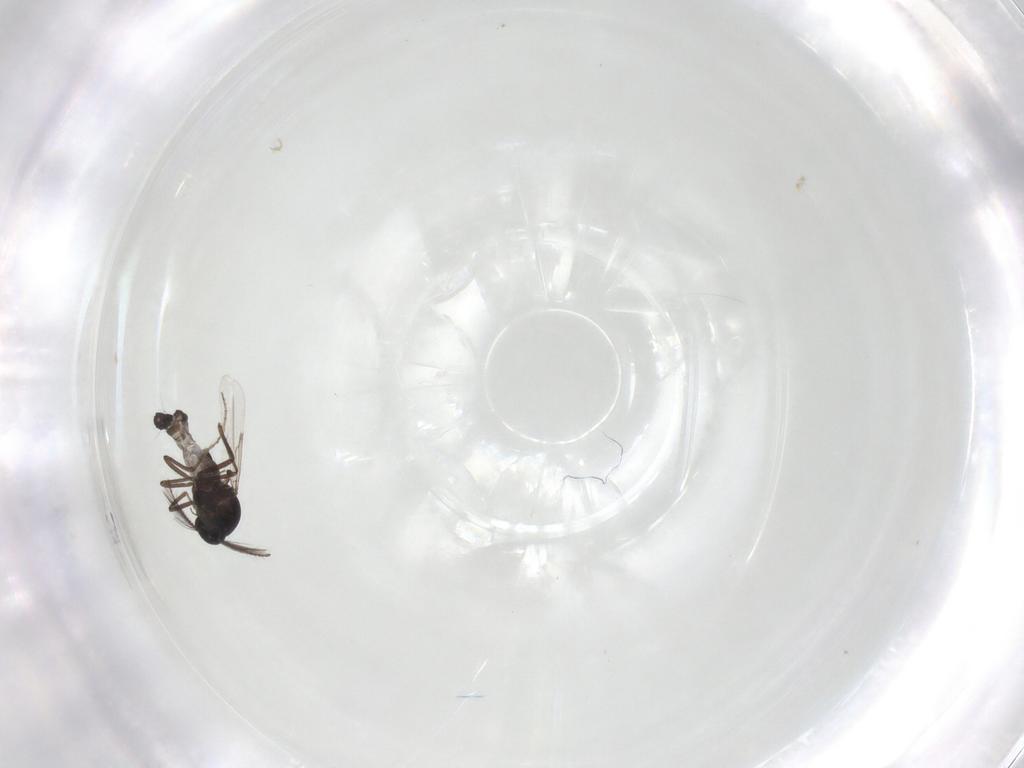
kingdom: Animalia
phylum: Arthropoda
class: Insecta
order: Diptera
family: Ceratopogonidae
